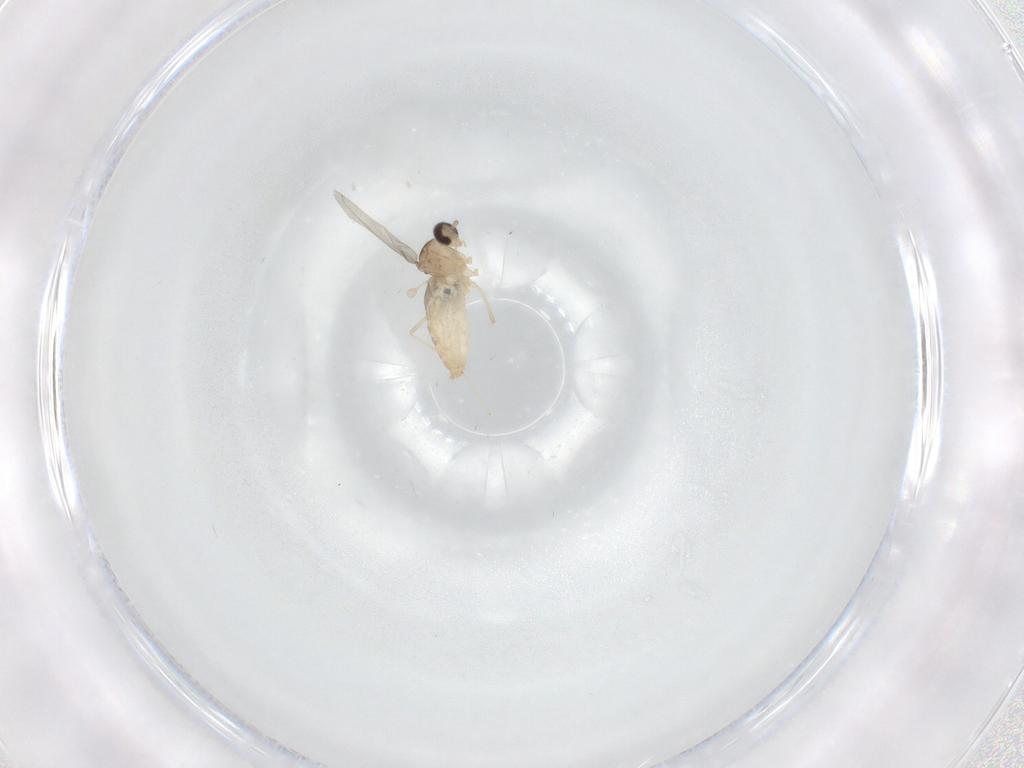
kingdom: Animalia
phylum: Arthropoda
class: Insecta
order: Diptera
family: Cecidomyiidae
